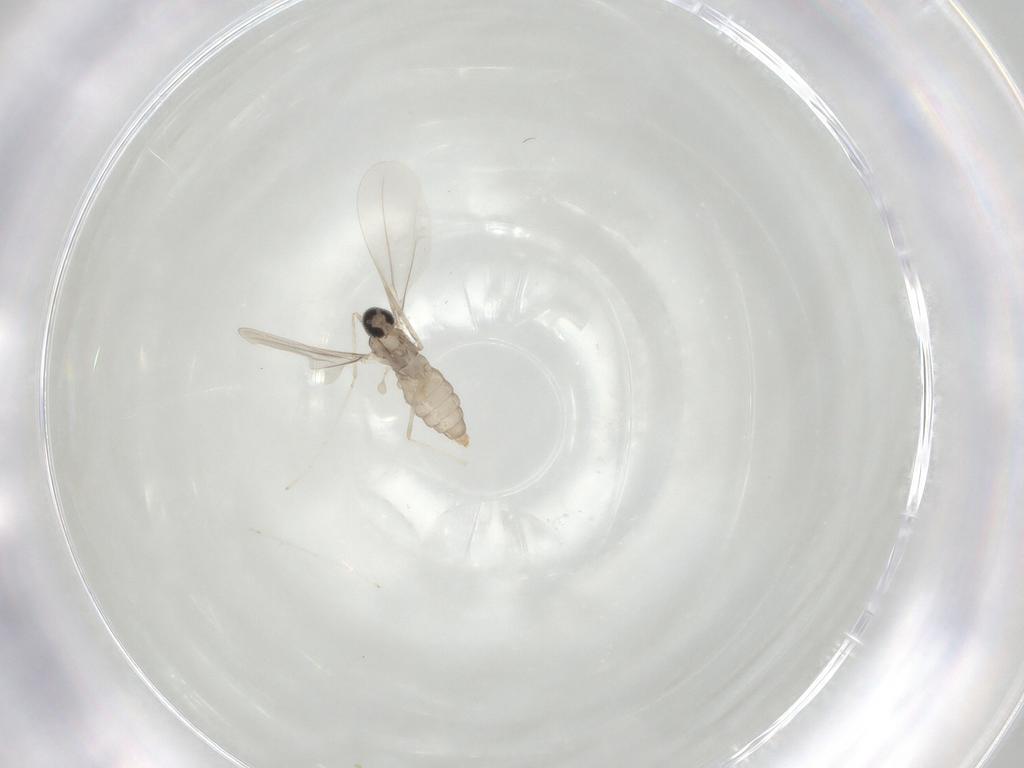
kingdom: Animalia
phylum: Arthropoda
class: Insecta
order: Diptera
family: Cecidomyiidae
